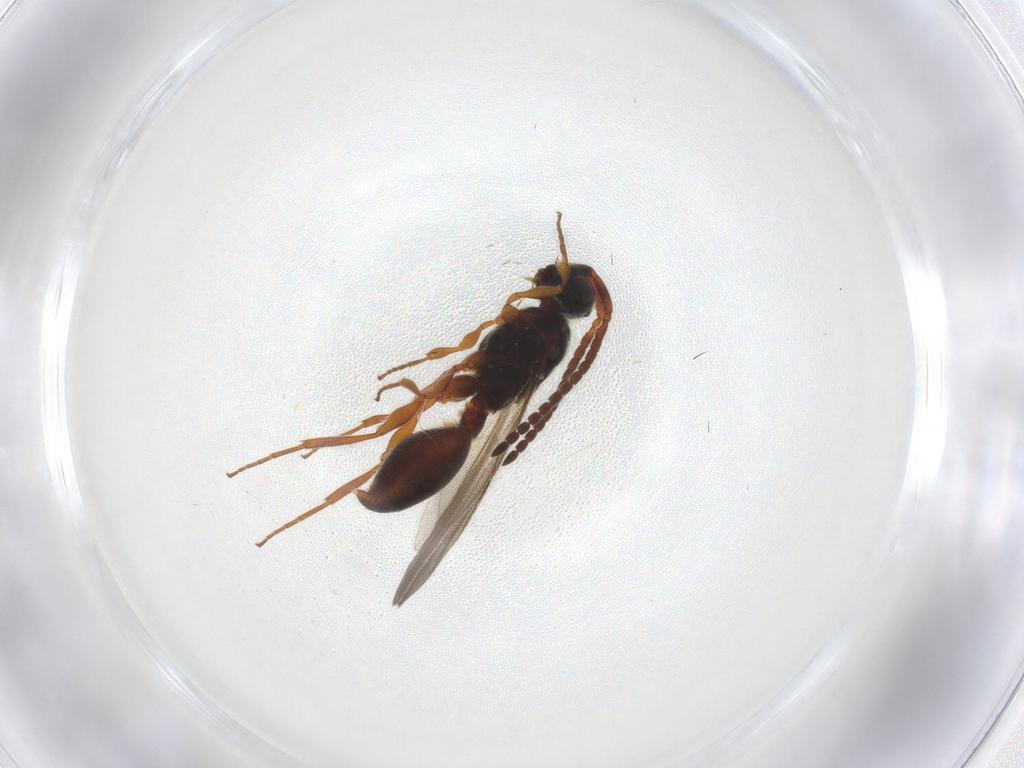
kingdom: Animalia
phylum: Arthropoda
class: Insecta
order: Hymenoptera
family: Diapriidae
